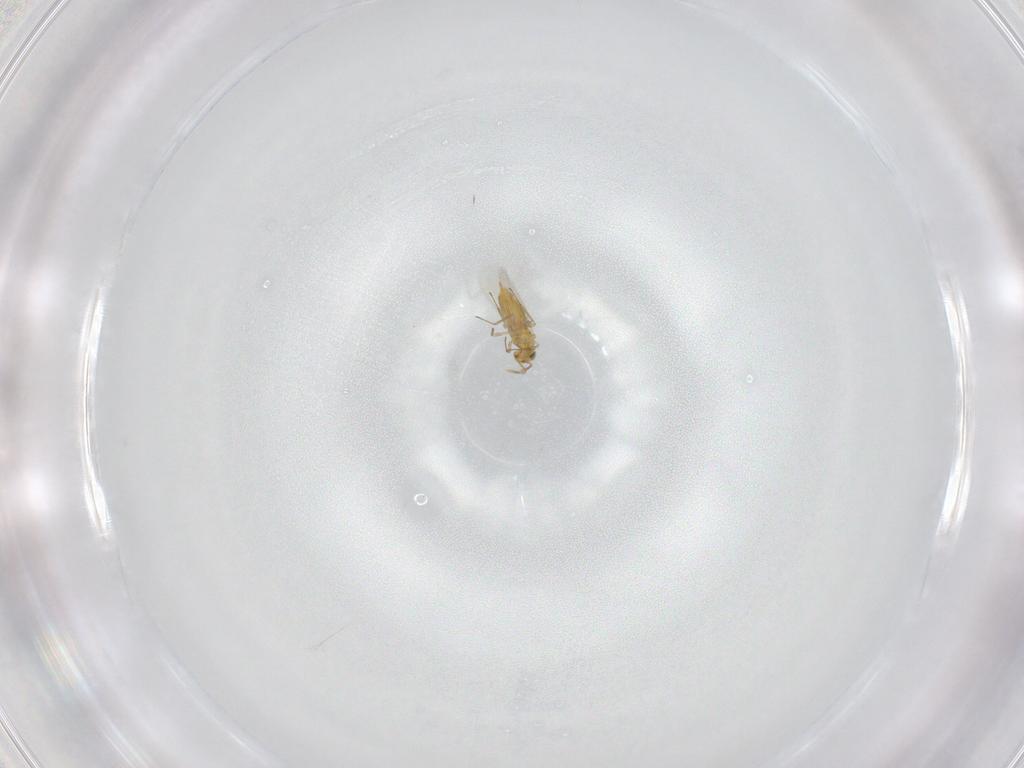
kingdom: Animalia
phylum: Arthropoda
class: Insecta
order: Hymenoptera
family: Aphelinidae
